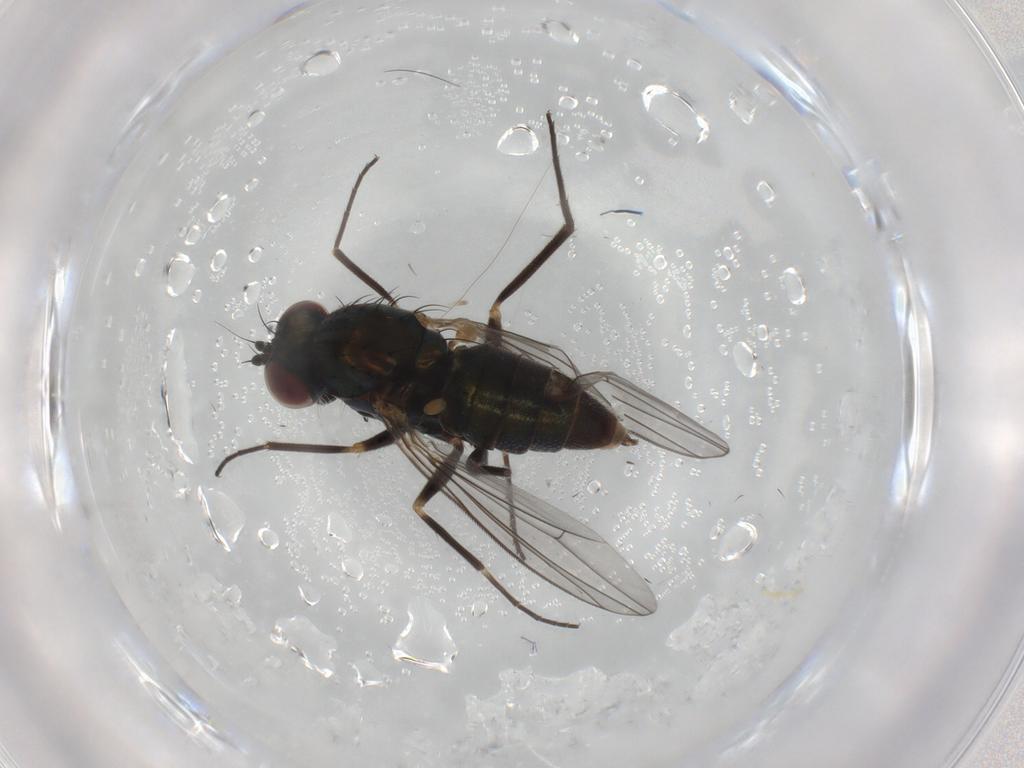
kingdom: Animalia
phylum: Arthropoda
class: Insecta
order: Diptera
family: Dolichopodidae
